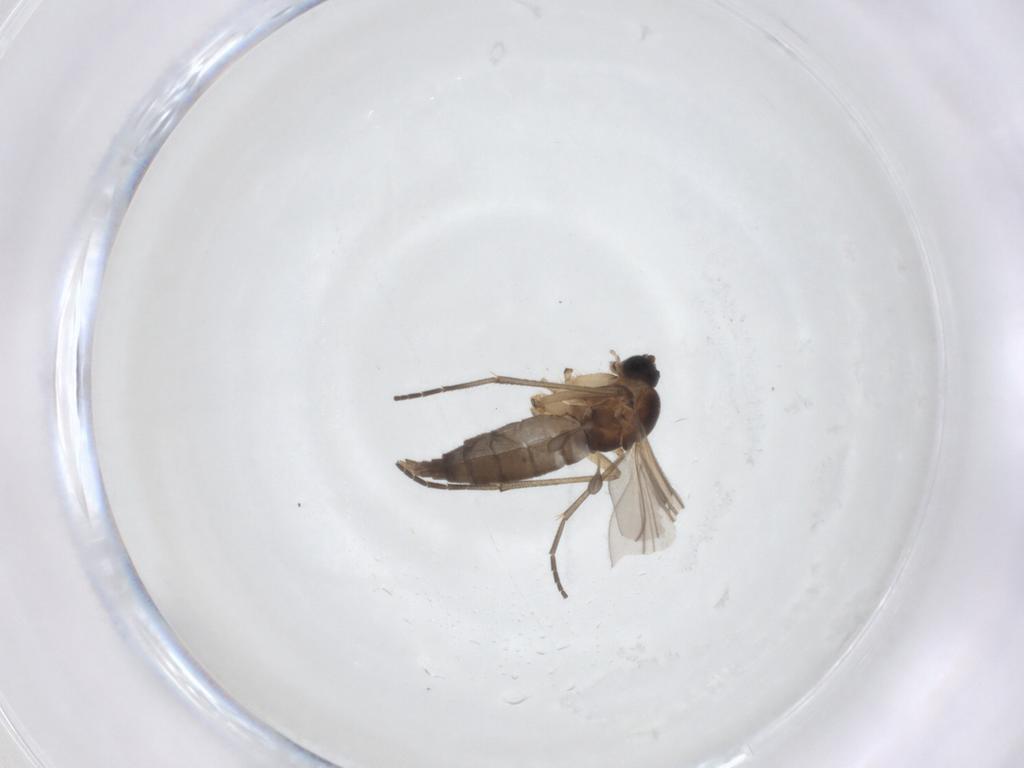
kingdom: Animalia
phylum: Arthropoda
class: Insecta
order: Diptera
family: Sciaridae
